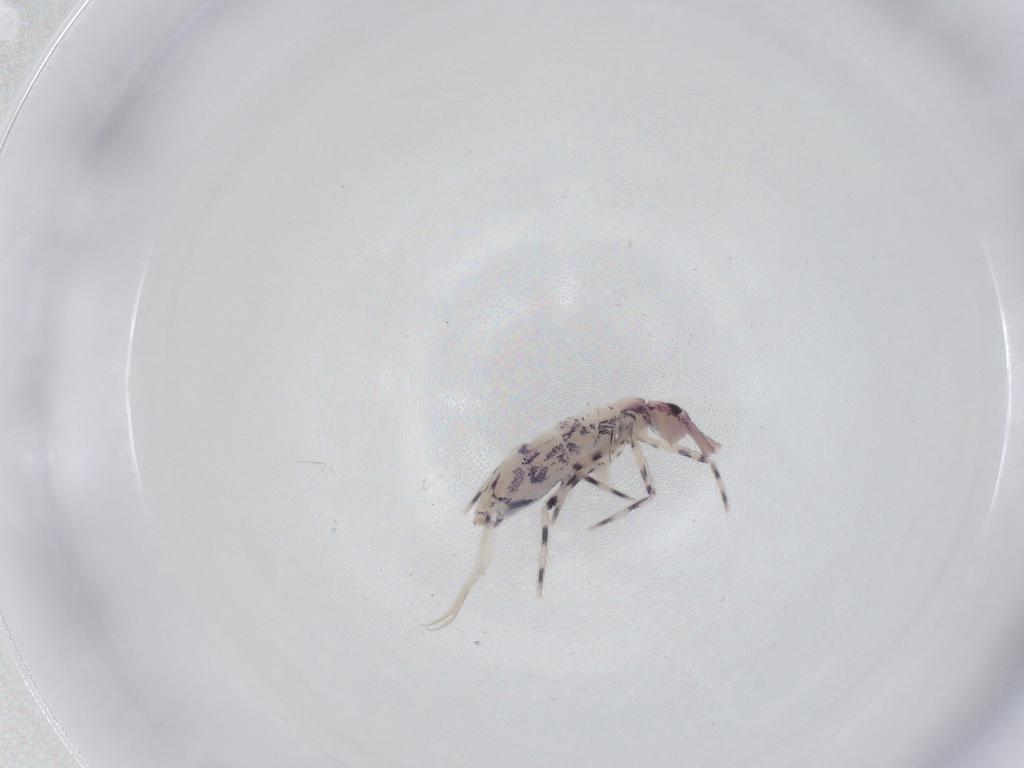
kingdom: Animalia
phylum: Arthropoda
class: Collembola
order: Entomobryomorpha
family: Entomobryidae
